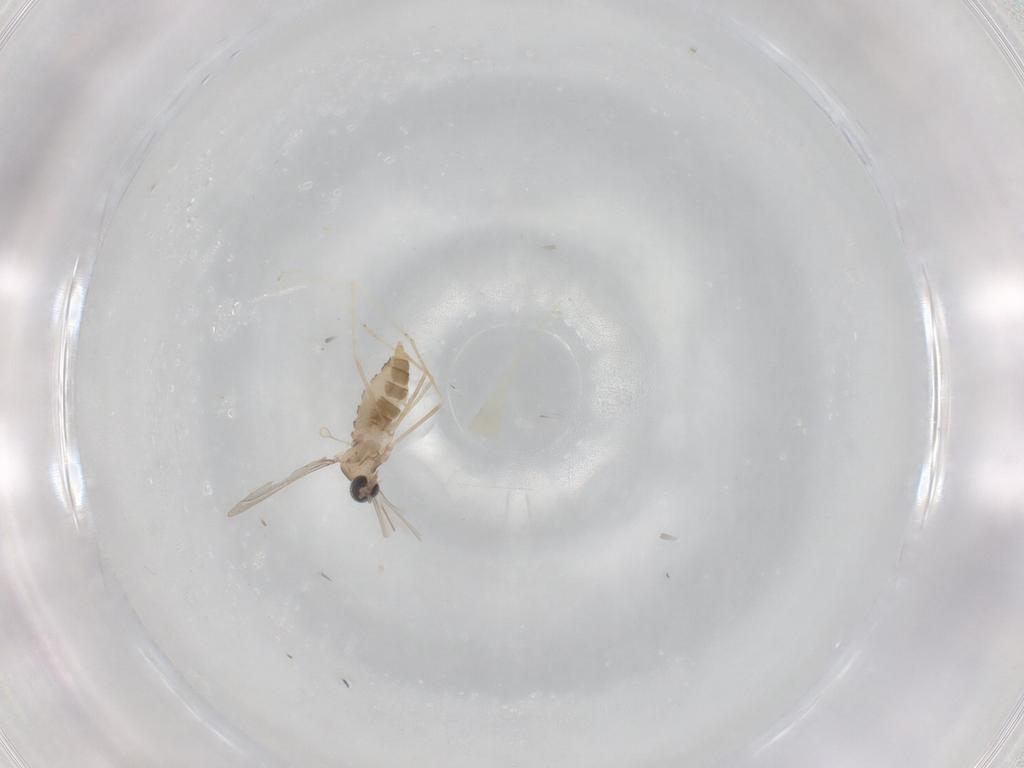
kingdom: Animalia
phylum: Arthropoda
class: Insecta
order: Diptera
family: Cecidomyiidae
